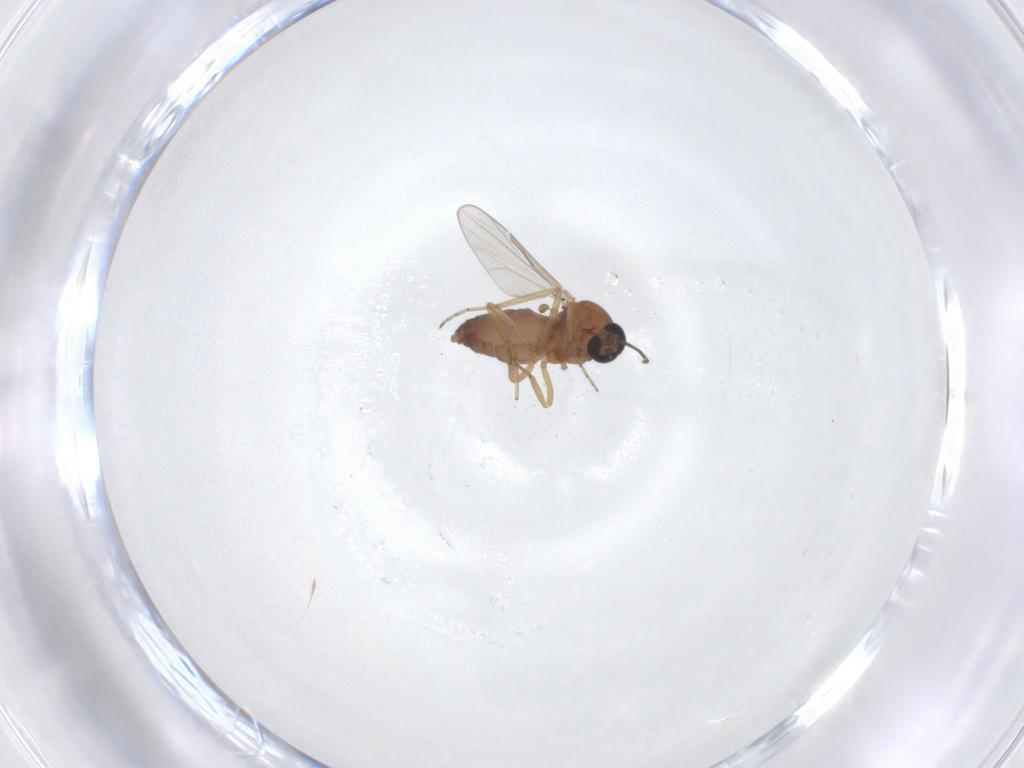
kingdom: Animalia
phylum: Arthropoda
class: Insecta
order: Diptera
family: Ceratopogonidae
